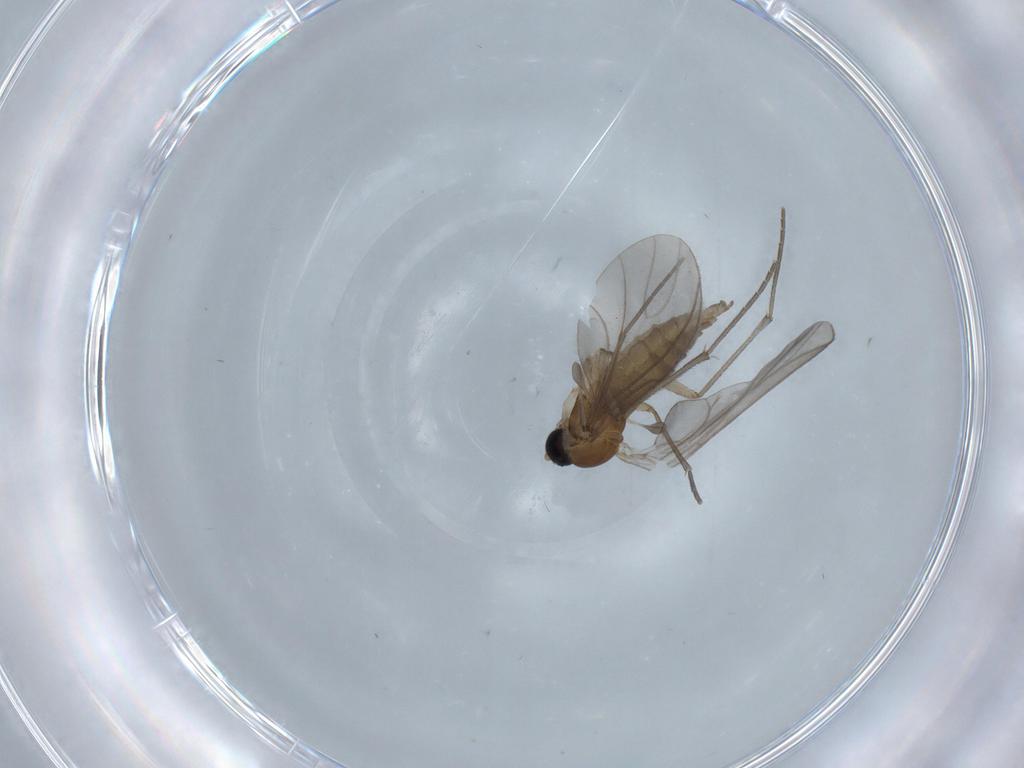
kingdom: Animalia
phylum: Arthropoda
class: Insecta
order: Diptera
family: Sciaridae
